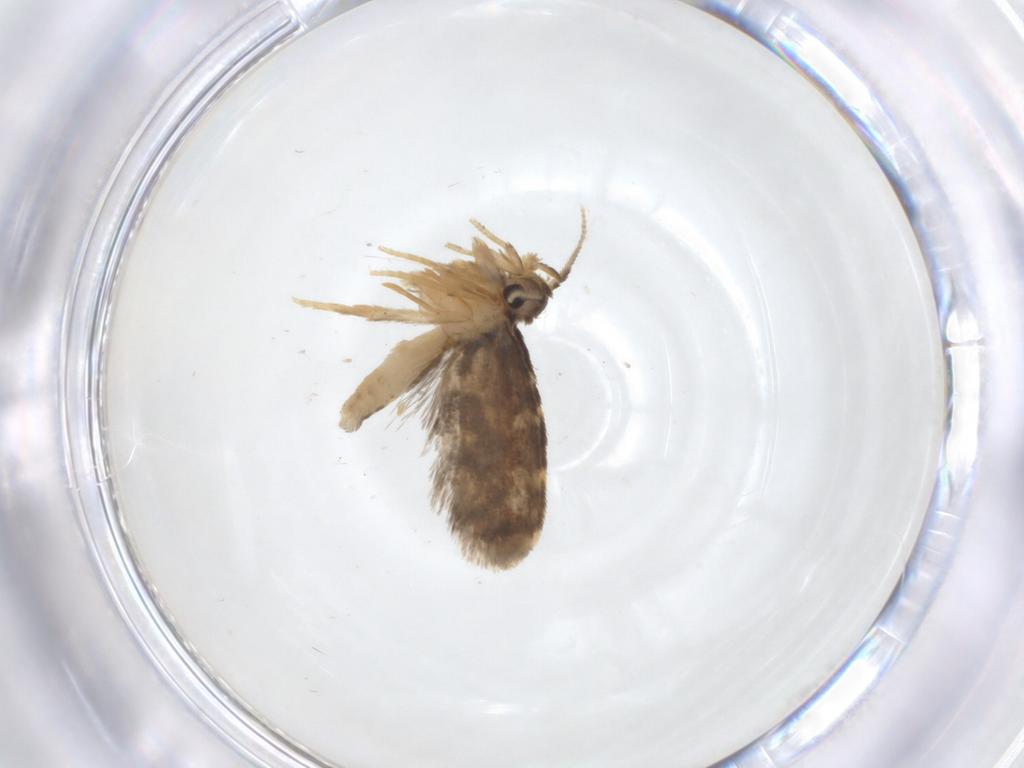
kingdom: Animalia
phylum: Arthropoda
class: Insecta
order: Lepidoptera
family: Psychidae
